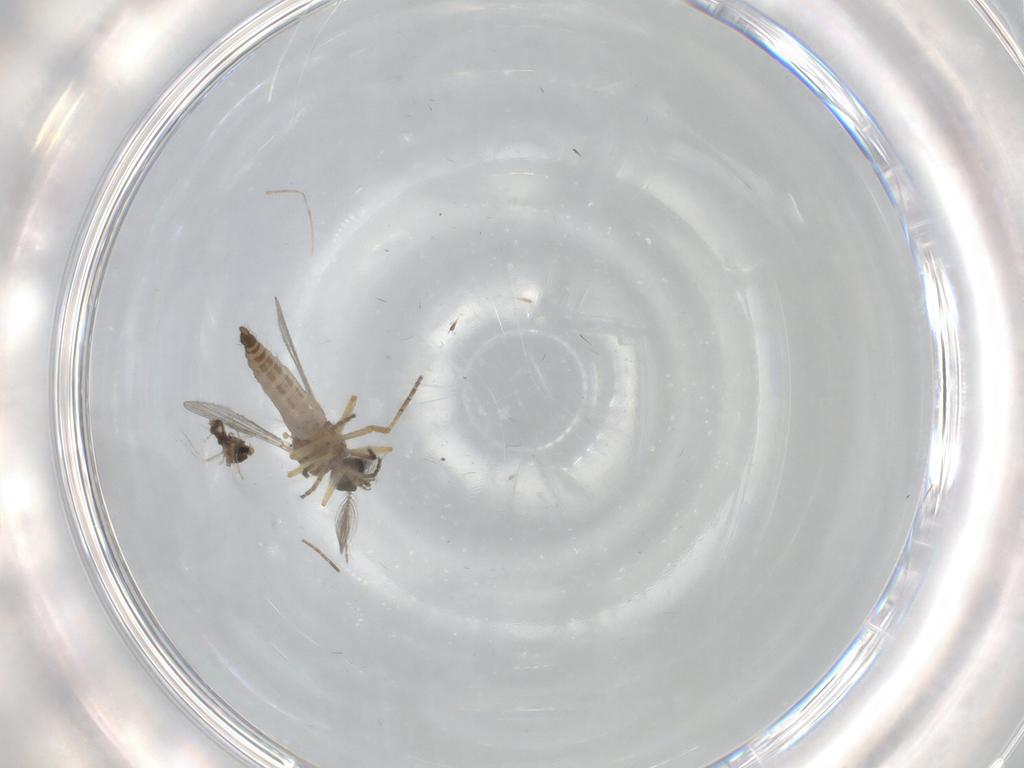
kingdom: Animalia
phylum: Arthropoda
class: Insecta
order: Diptera
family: Cecidomyiidae
